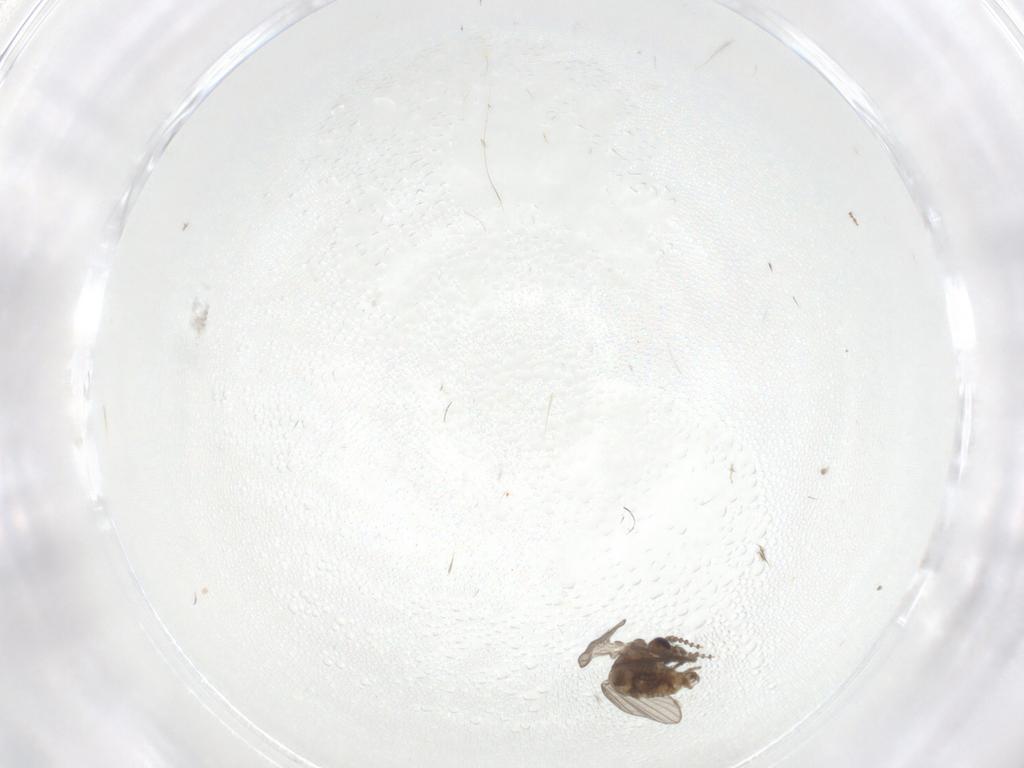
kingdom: Animalia
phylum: Arthropoda
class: Insecta
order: Diptera
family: Psychodidae
